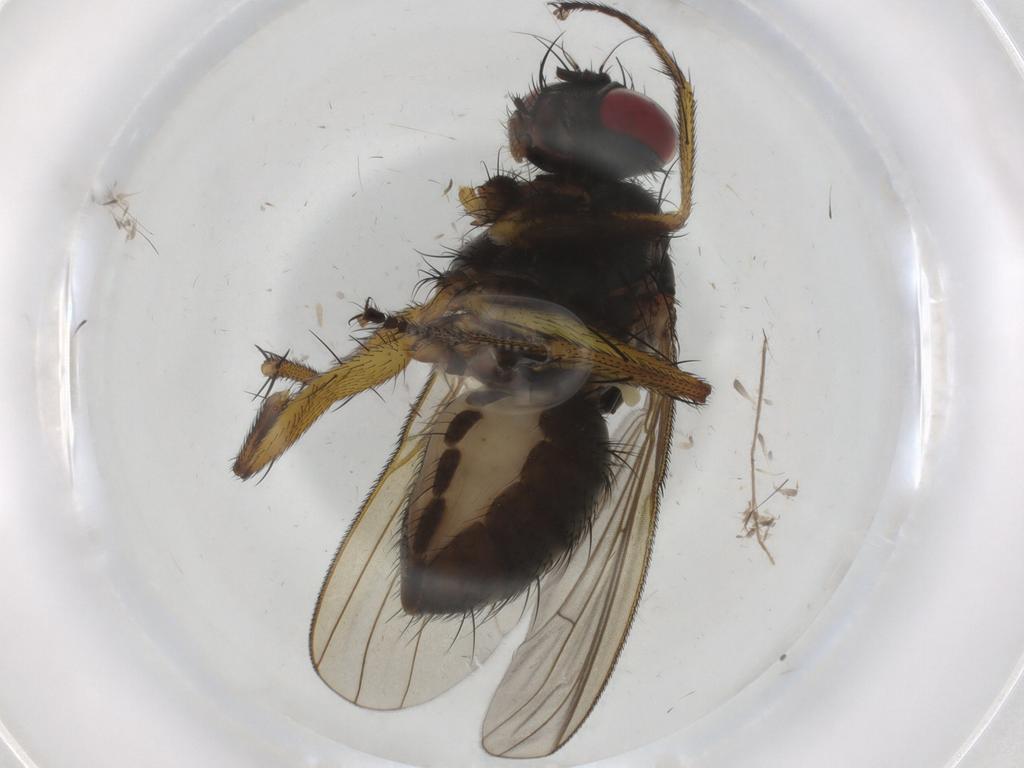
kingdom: Animalia
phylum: Arthropoda
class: Insecta
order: Diptera
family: Muscidae
